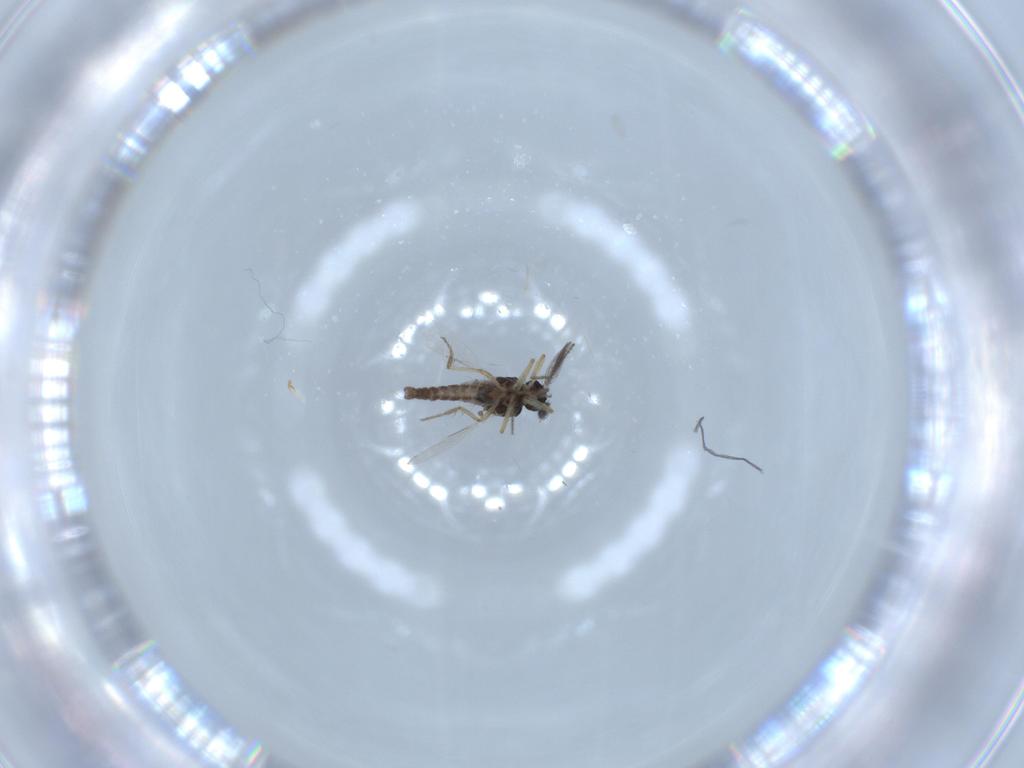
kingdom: Animalia
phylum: Arthropoda
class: Insecta
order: Diptera
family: Ceratopogonidae
